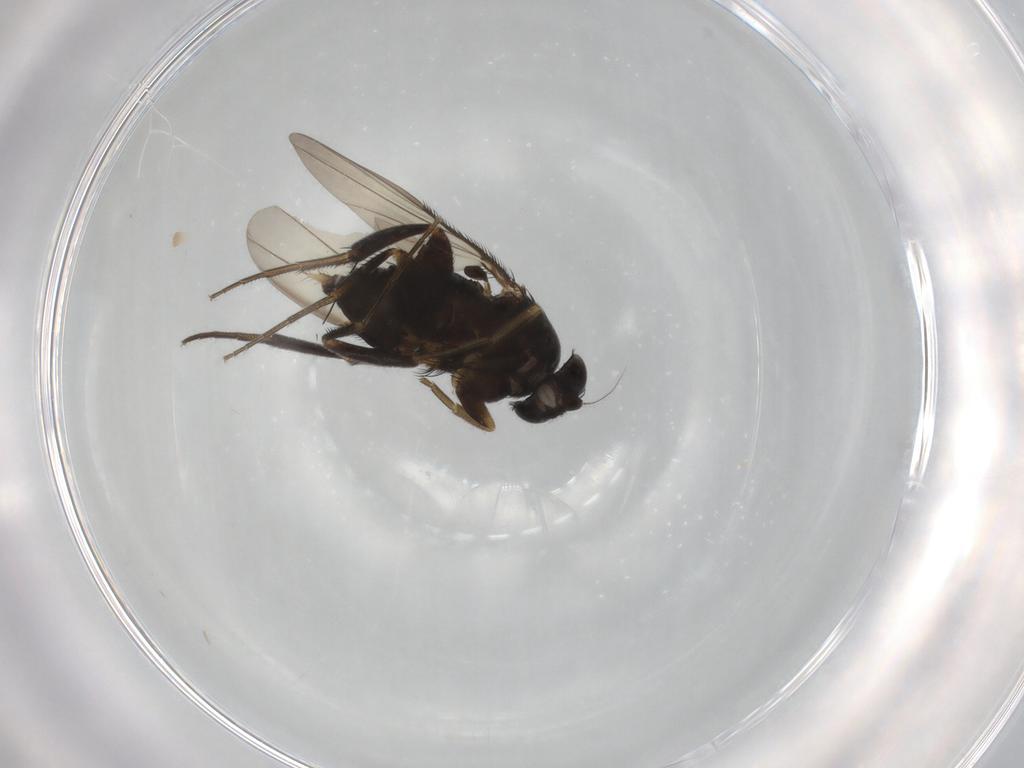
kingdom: Animalia
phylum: Arthropoda
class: Insecta
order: Diptera
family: Phoridae
